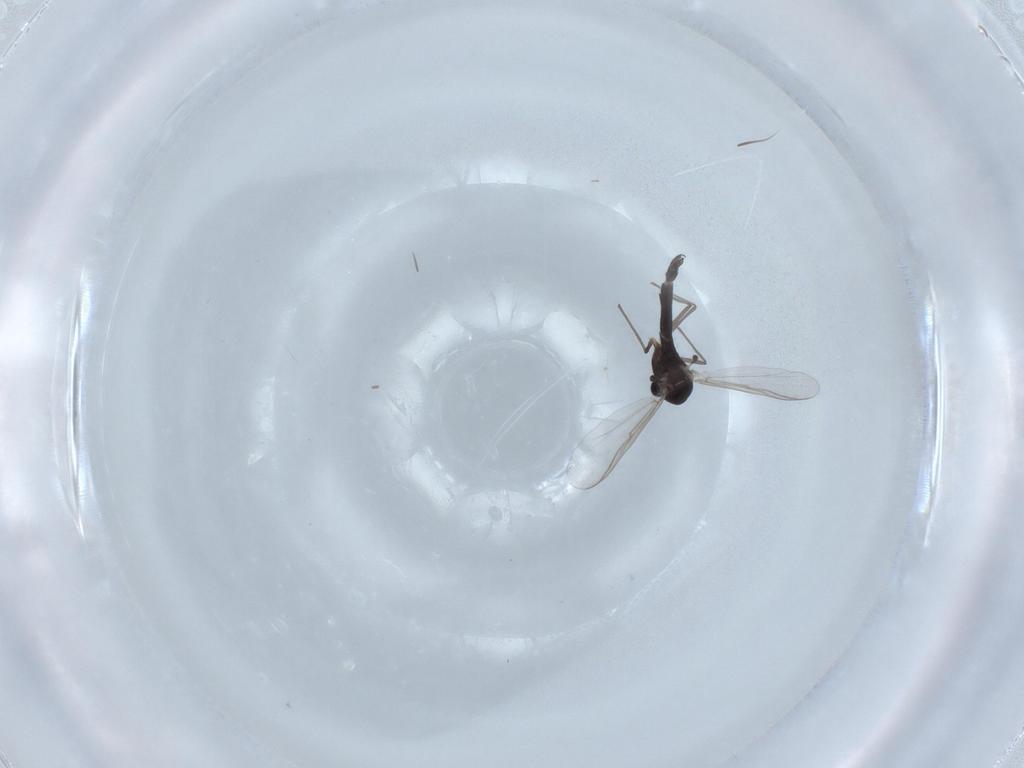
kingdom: Animalia
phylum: Arthropoda
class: Insecta
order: Diptera
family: Chironomidae
